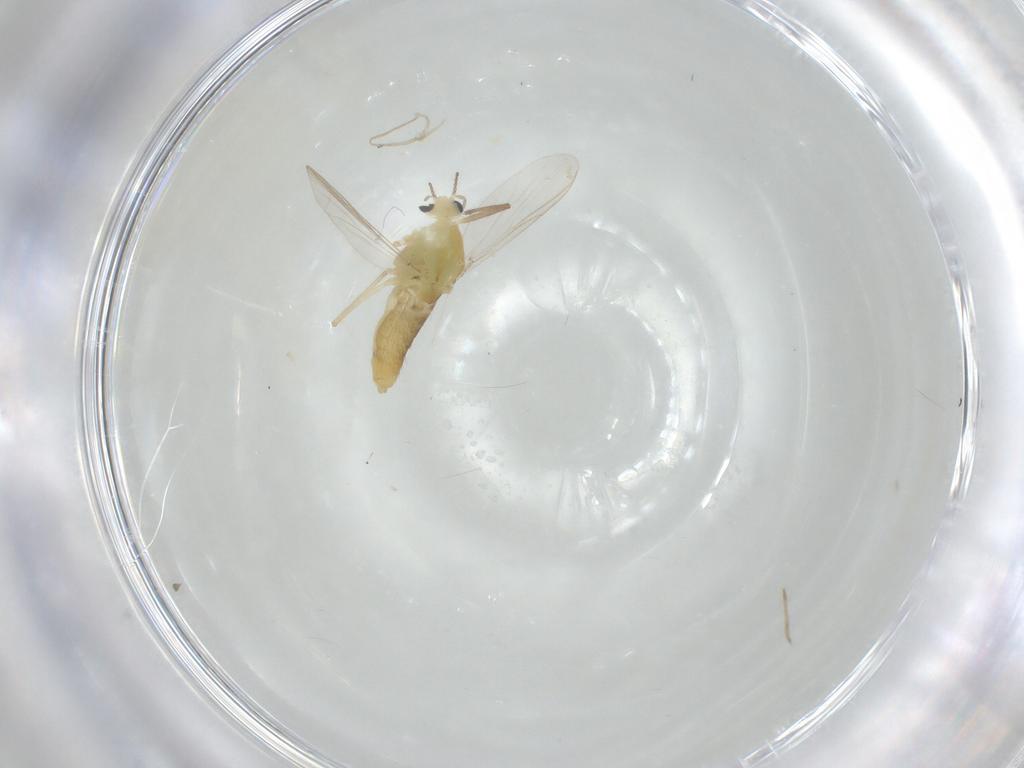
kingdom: Animalia
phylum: Arthropoda
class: Insecta
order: Diptera
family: Chironomidae
